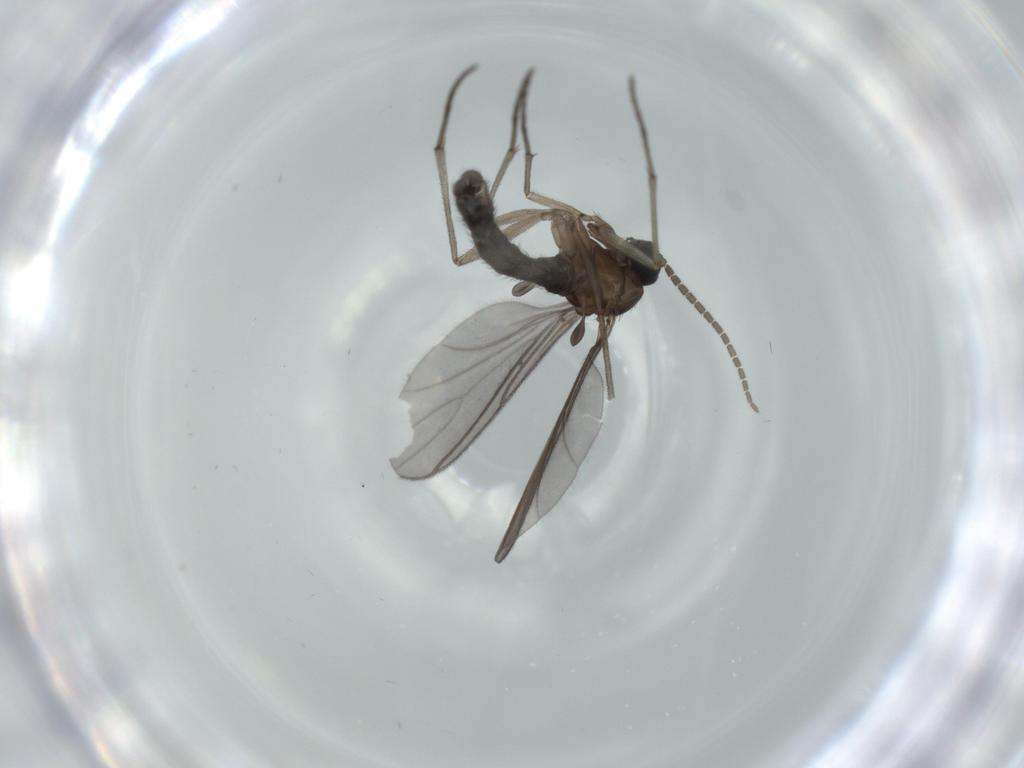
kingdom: Animalia
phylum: Arthropoda
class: Insecta
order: Diptera
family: Sciaridae
